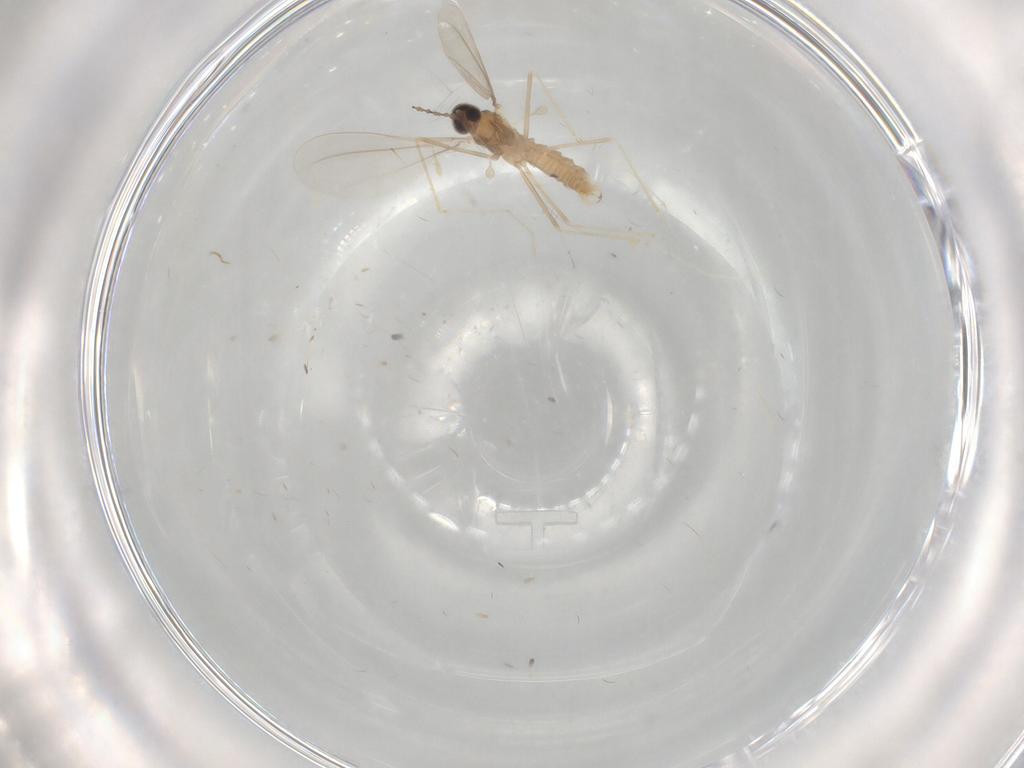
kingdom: Animalia
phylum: Arthropoda
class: Insecta
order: Diptera
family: Cecidomyiidae
